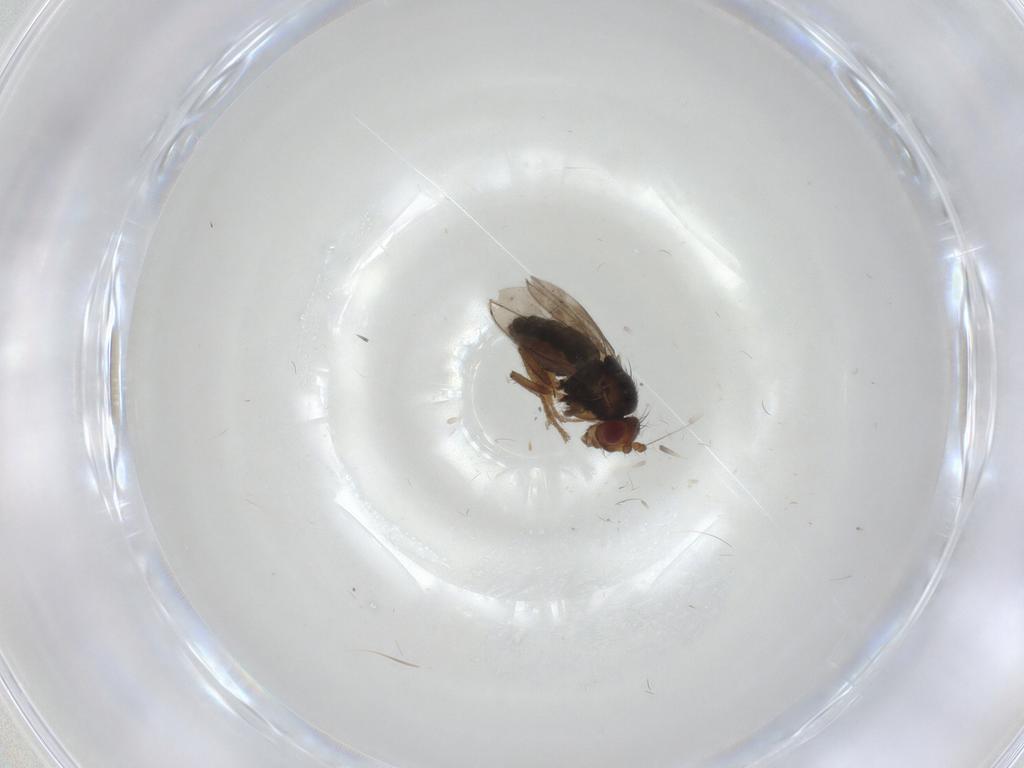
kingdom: Animalia
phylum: Arthropoda
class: Insecta
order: Diptera
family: Sphaeroceridae
